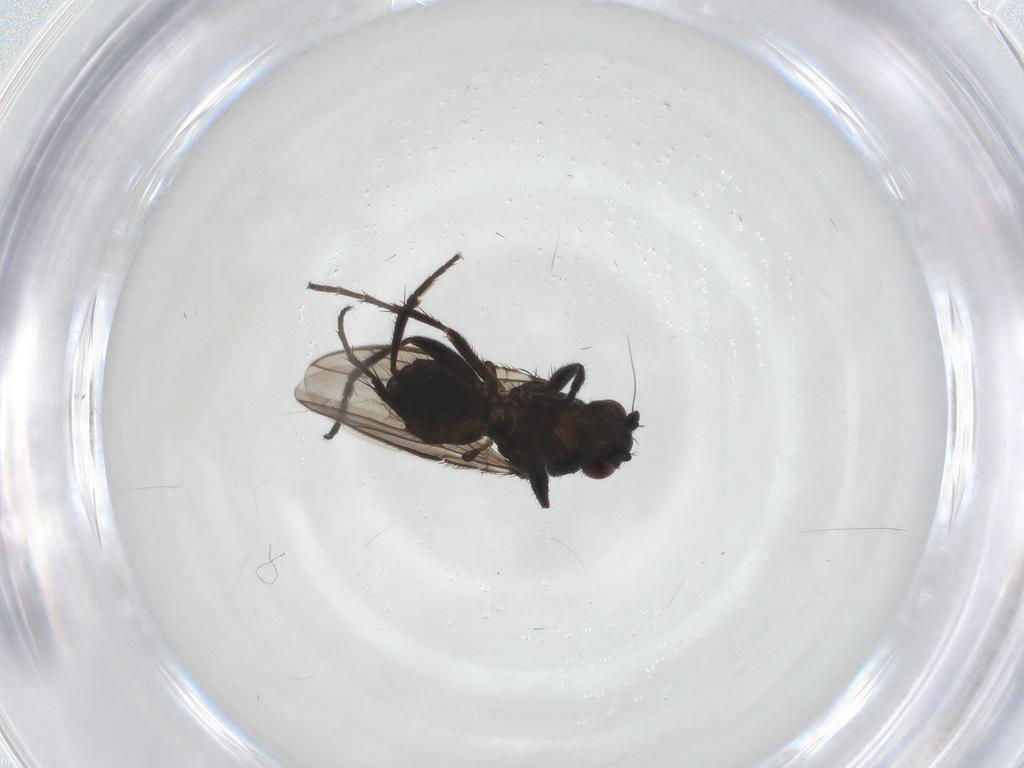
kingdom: Animalia
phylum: Arthropoda
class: Insecta
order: Diptera
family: Sphaeroceridae
